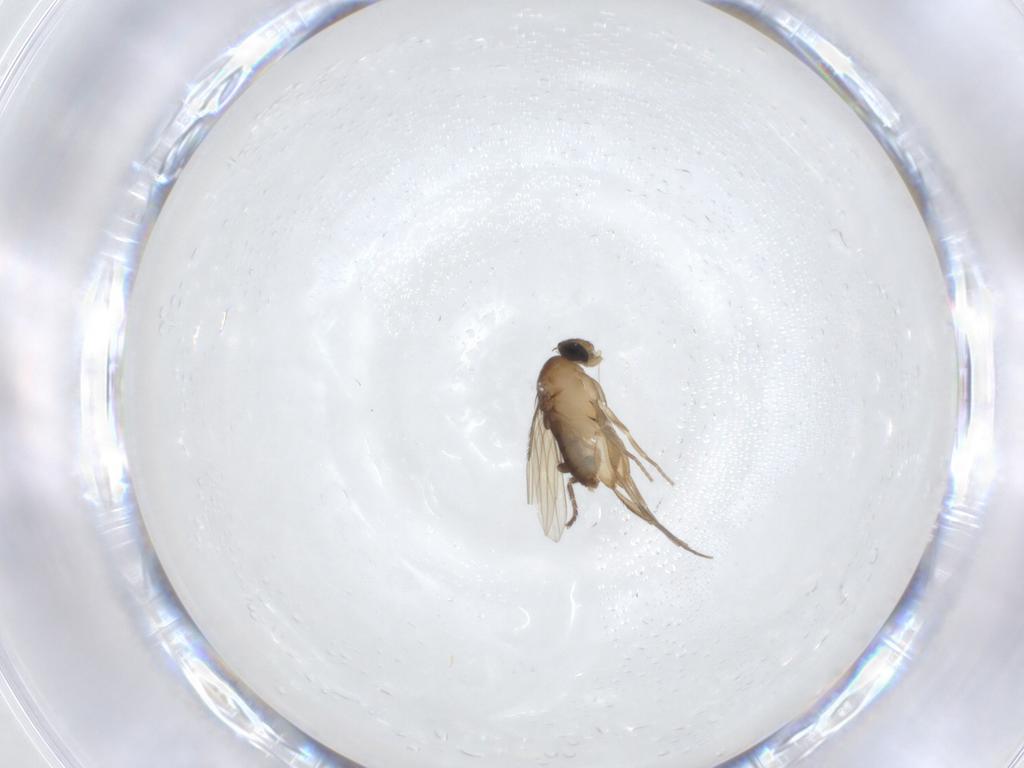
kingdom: Animalia
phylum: Arthropoda
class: Insecta
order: Diptera
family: Milichiidae
